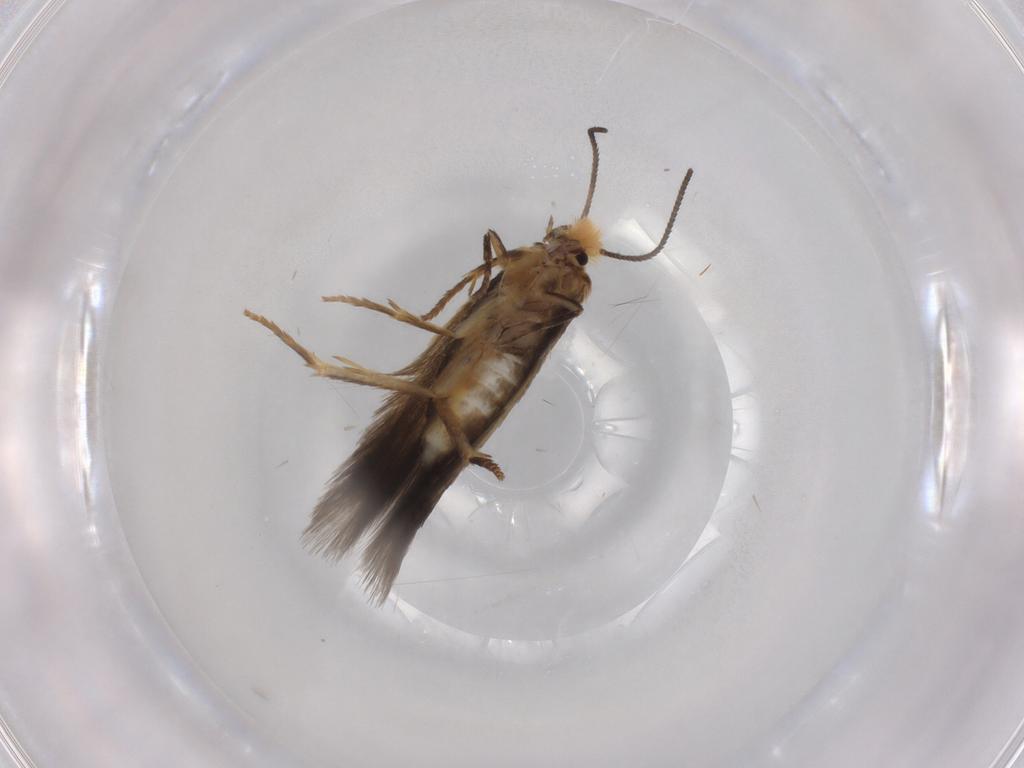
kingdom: Animalia
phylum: Arthropoda
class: Insecta
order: Lepidoptera
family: Nepticulidae
